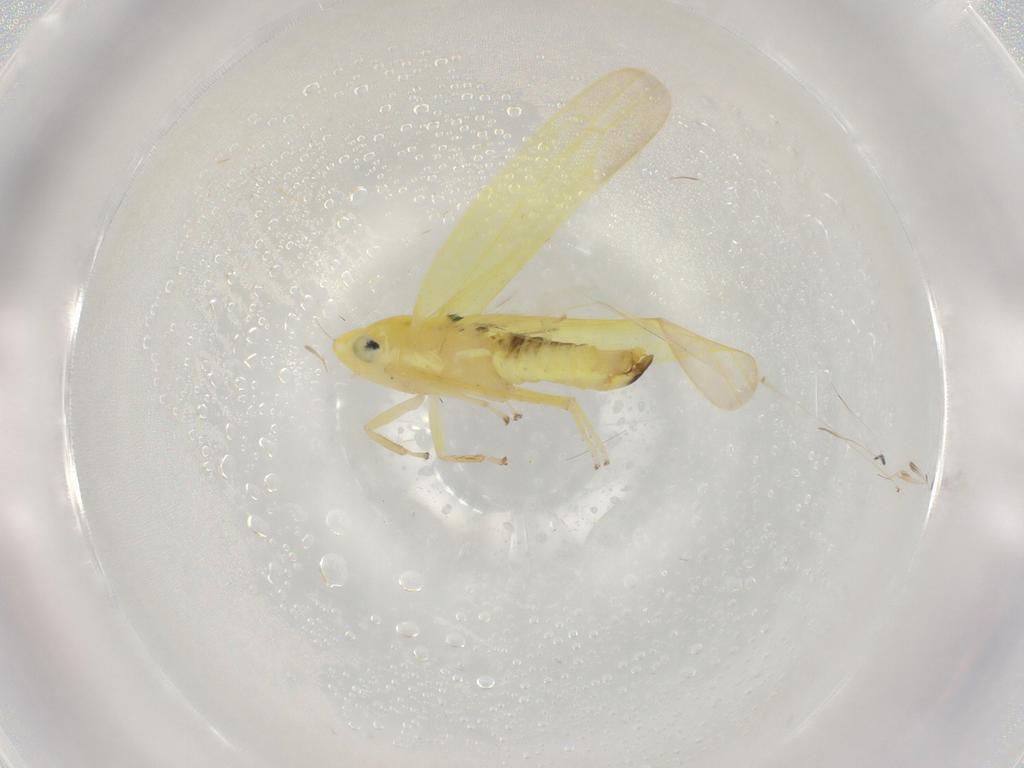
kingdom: Animalia
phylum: Arthropoda
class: Insecta
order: Hemiptera
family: Cicadellidae
